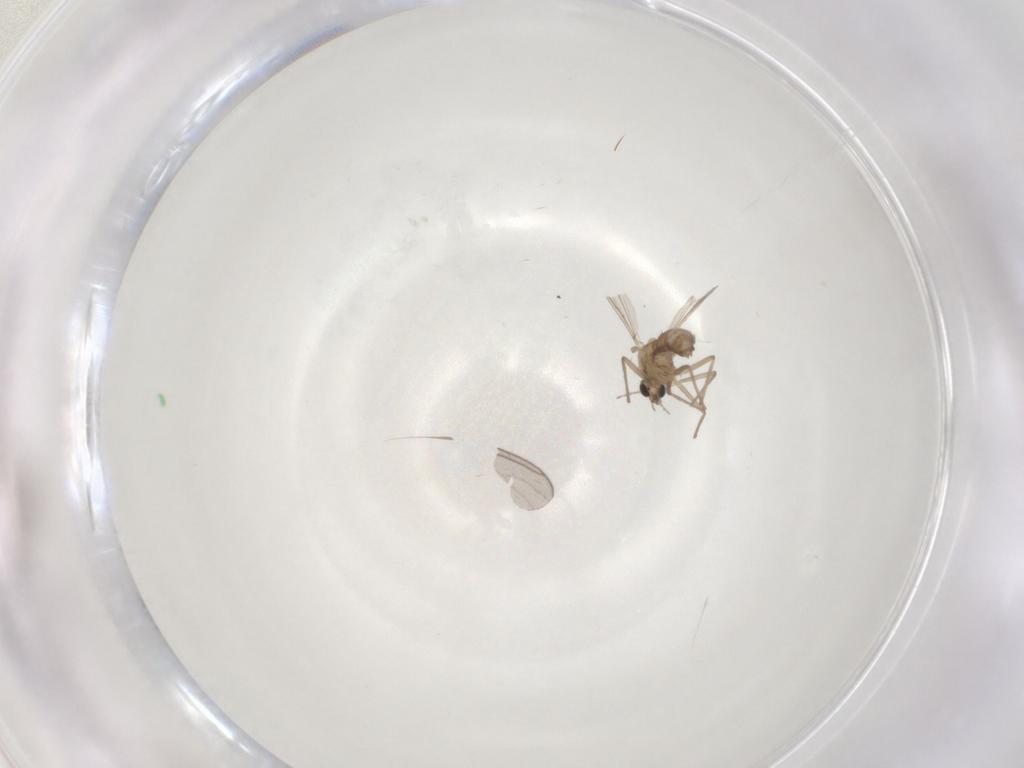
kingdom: Animalia
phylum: Arthropoda
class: Insecta
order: Diptera
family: Chironomidae
